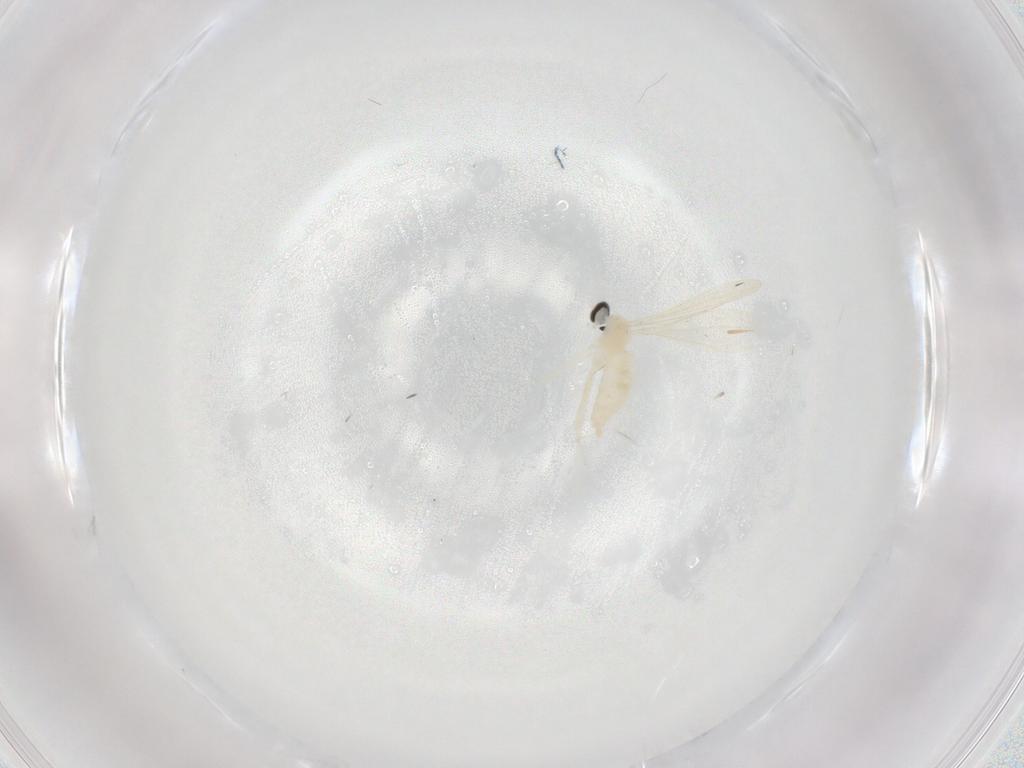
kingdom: Animalia
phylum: Arthropoda
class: Insecta
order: Diptera
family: Cecidomyiidae
